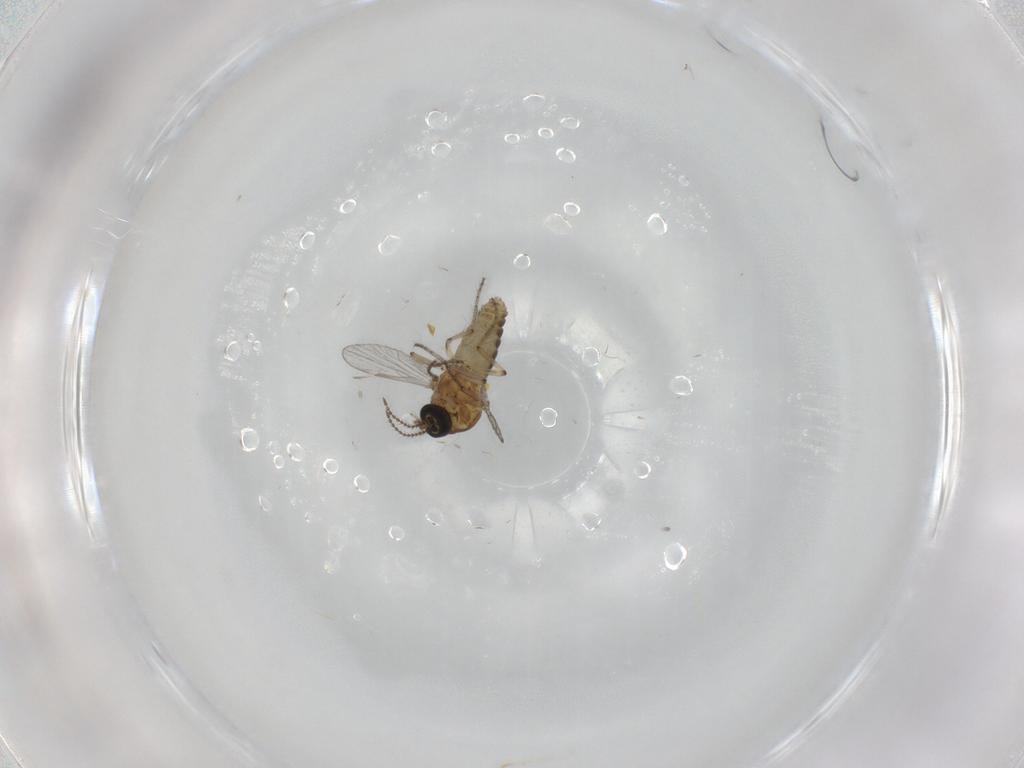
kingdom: Animalia
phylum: Arthropoda
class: Insecta
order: Diptera
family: Ceratopogonidae
